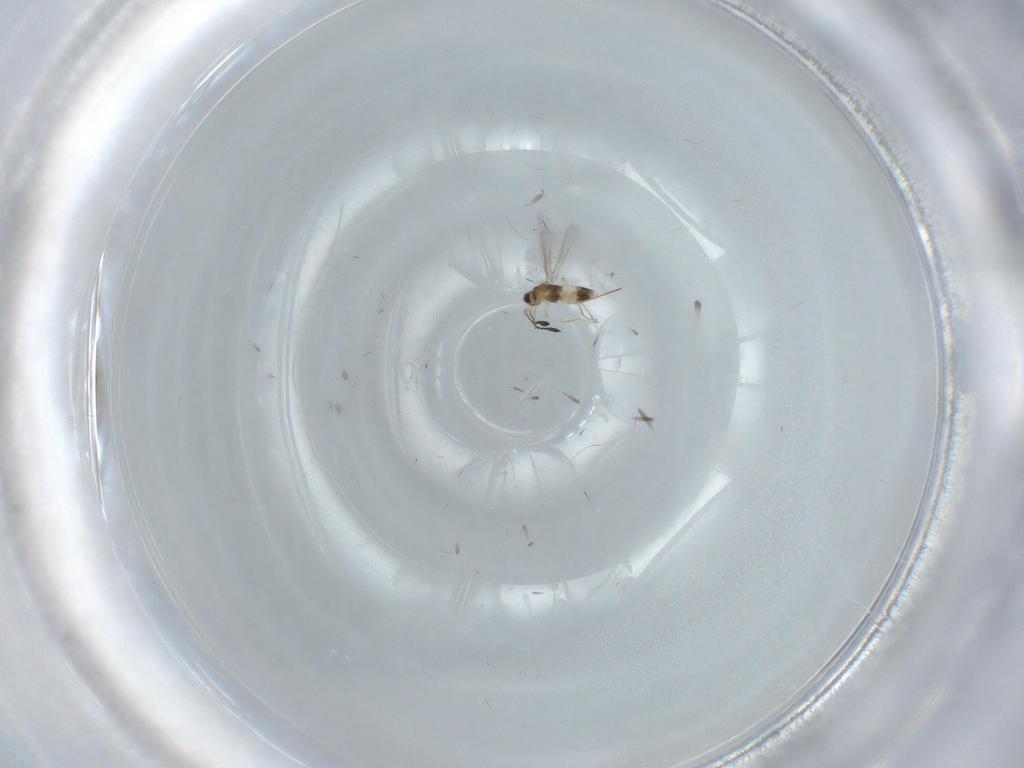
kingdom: Animalia
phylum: Arthropoda
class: Insecta
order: Hymenoptera
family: Mymaridae
